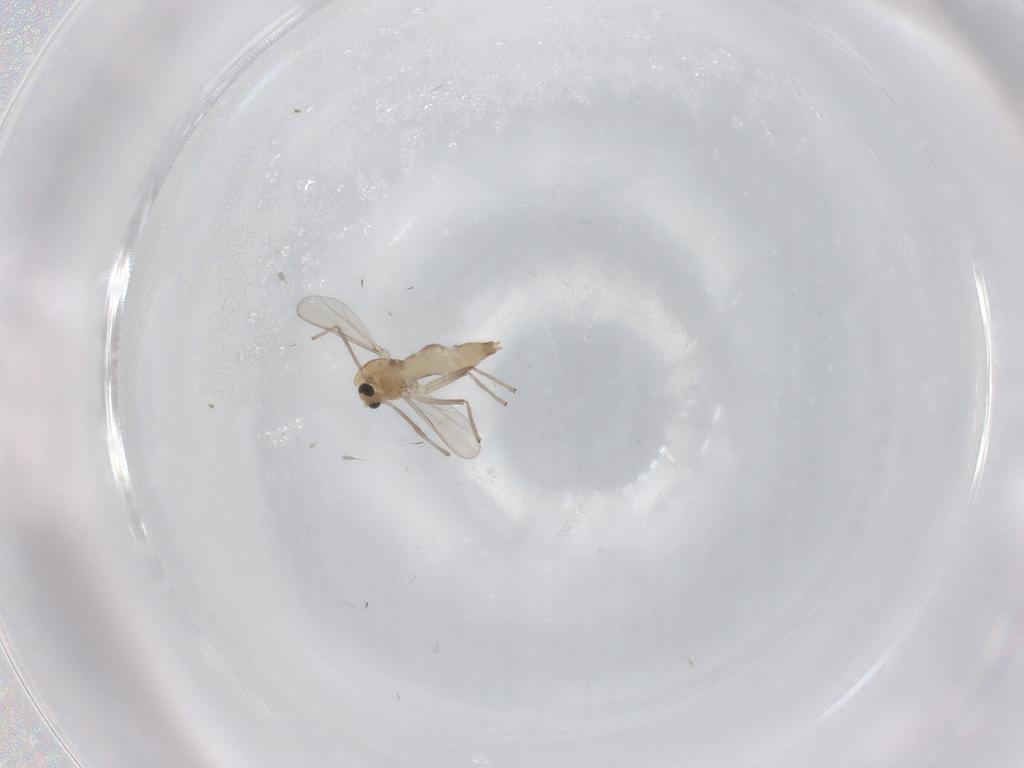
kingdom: Animalia
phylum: Arthropoda
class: Insecta
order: Diptera
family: Chironomidae
